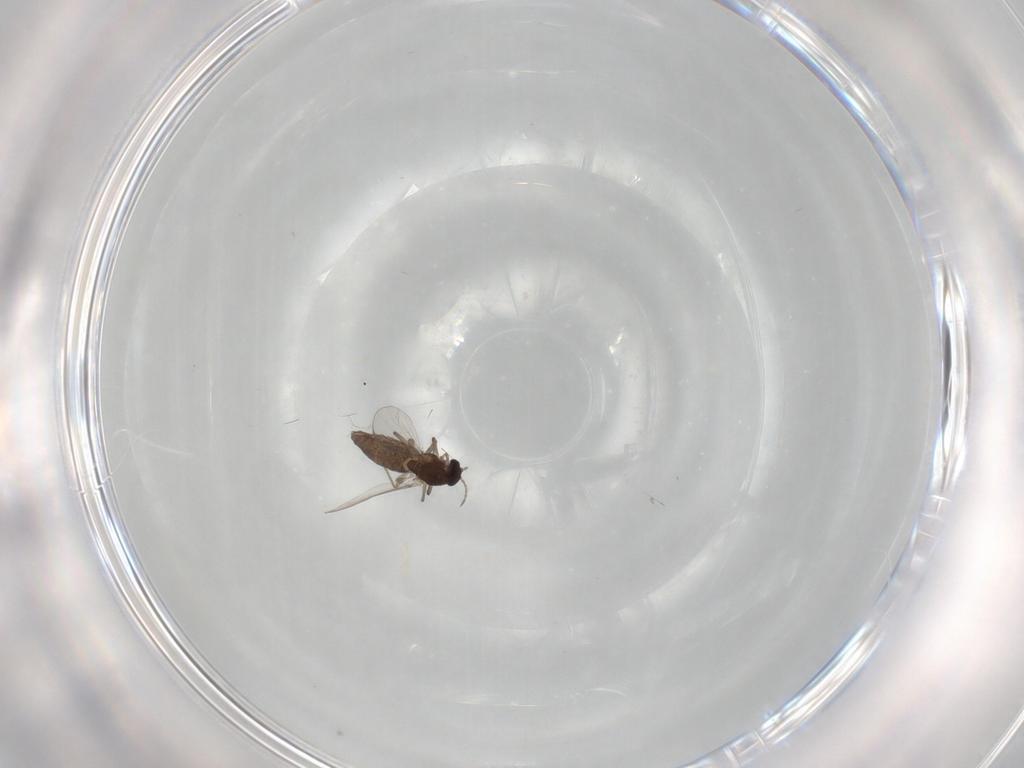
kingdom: Animalia
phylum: Arthropoda
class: Insecta
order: Diptera
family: Chironomidae
